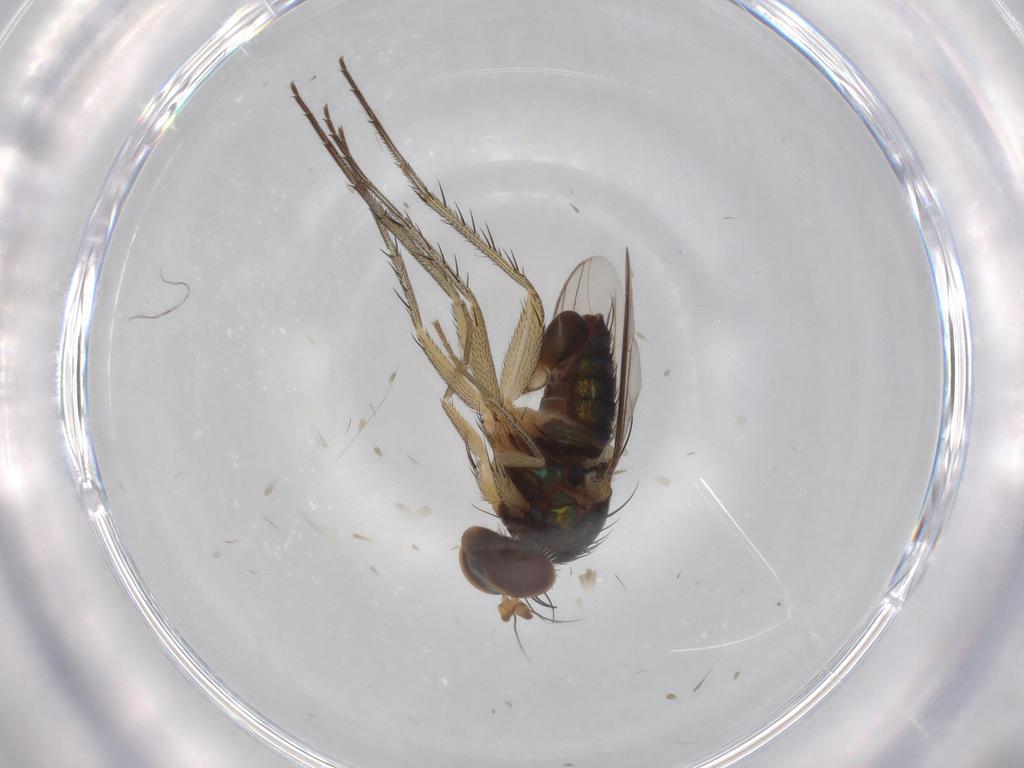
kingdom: Animalia
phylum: Arthropoda
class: Insecta
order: Diptera
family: Dolichopodidae
